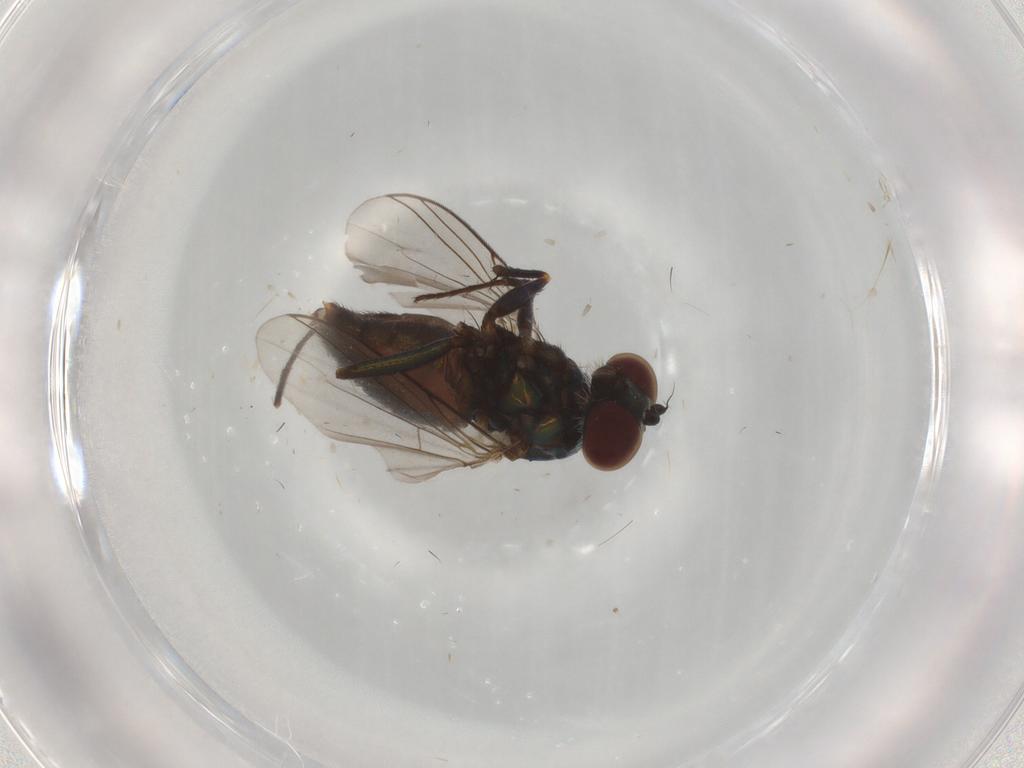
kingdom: Animalia
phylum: Arthropoda
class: Insecta
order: Diptera
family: Dolichopodidae
